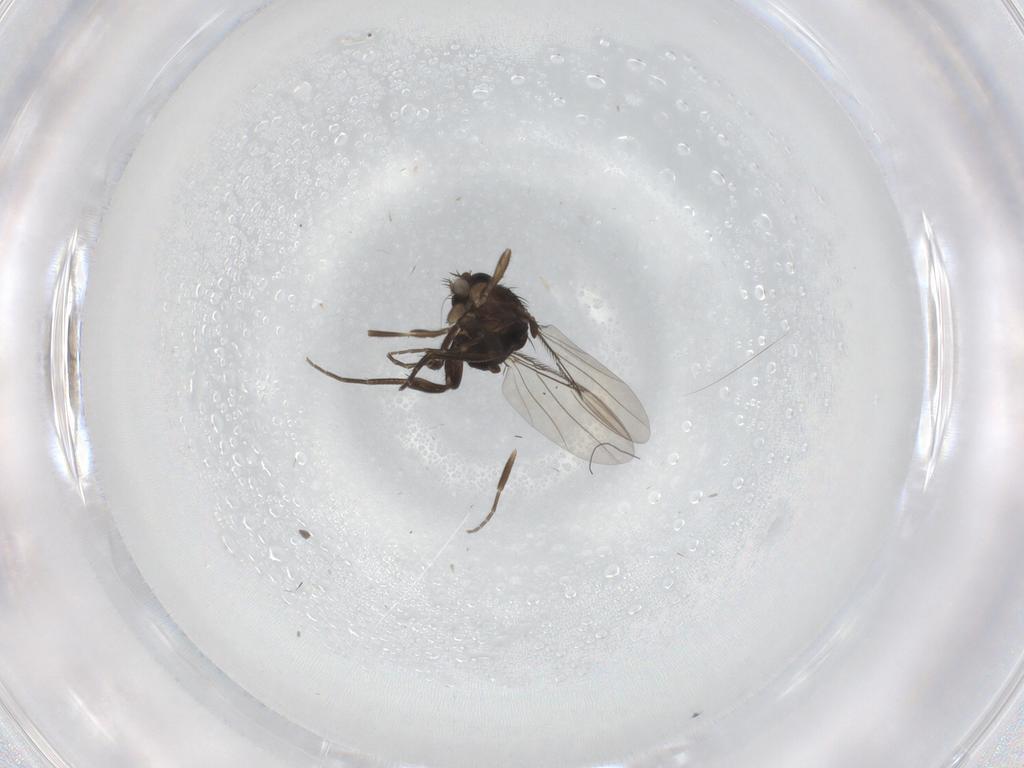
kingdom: Animalia
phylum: Arthropoda
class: Insecta
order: Diptera
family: Phoridae
